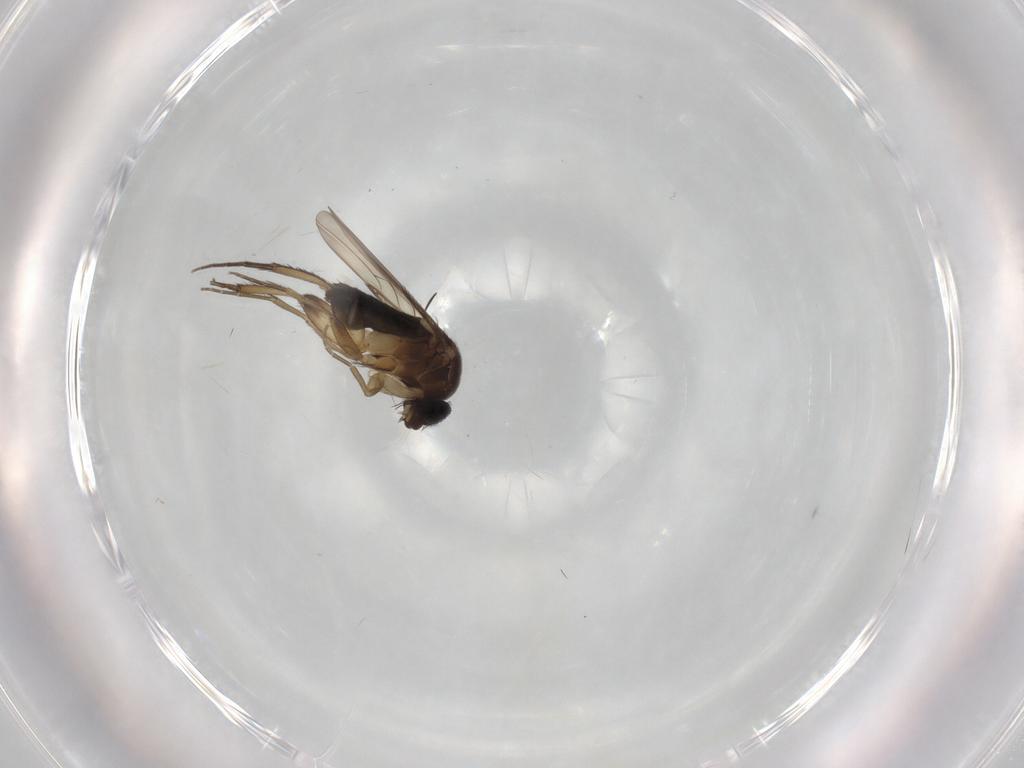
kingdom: Animalia
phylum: Arthropoda
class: Insecta
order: Diptera
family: Phoridae
